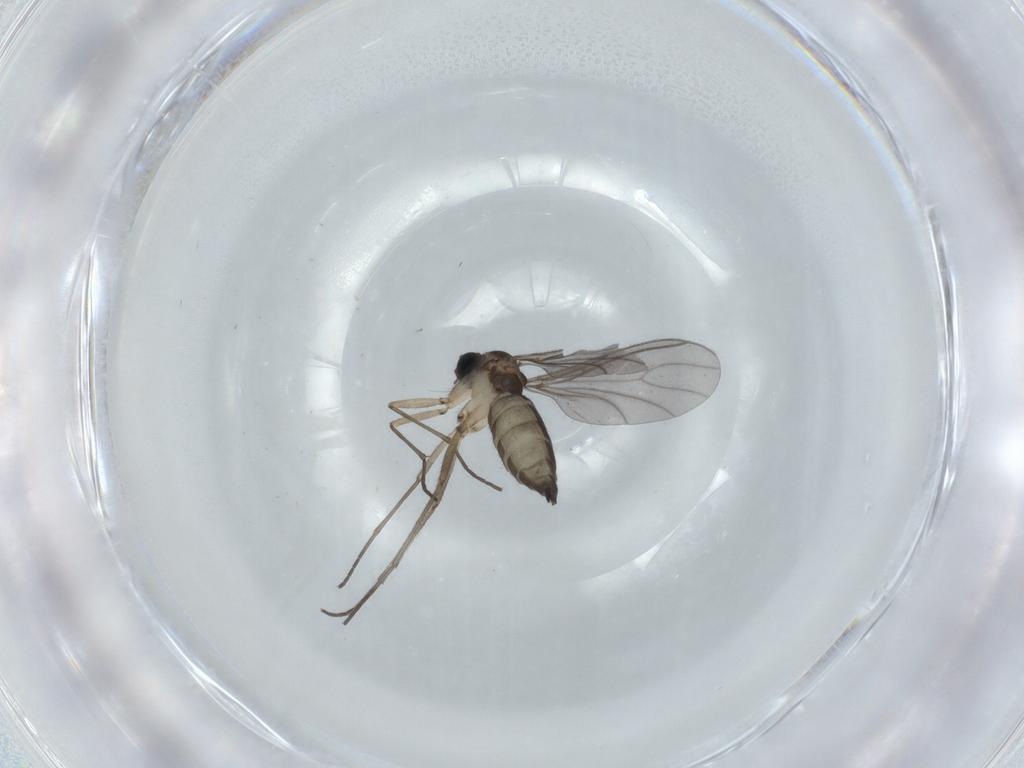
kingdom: Animalia
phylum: Arthropoda
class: Insecta
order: Diptera
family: Sciaridae
